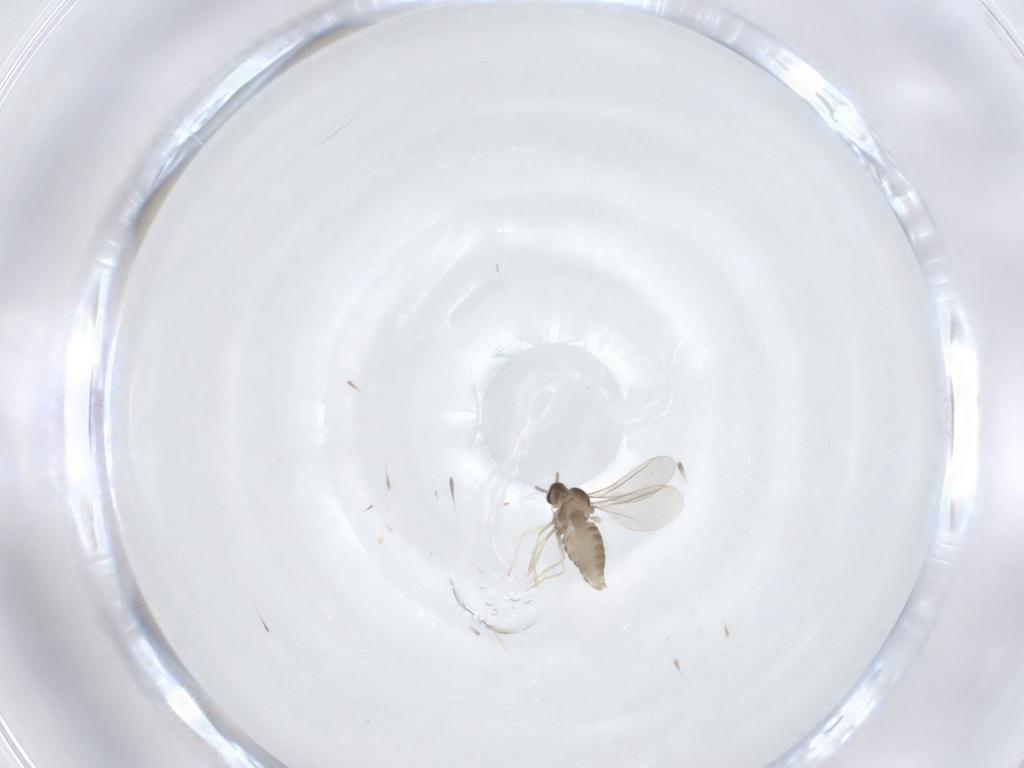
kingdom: Animalia
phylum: Arthropoda
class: Insecta
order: Diptera
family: Cecidomyiidae
